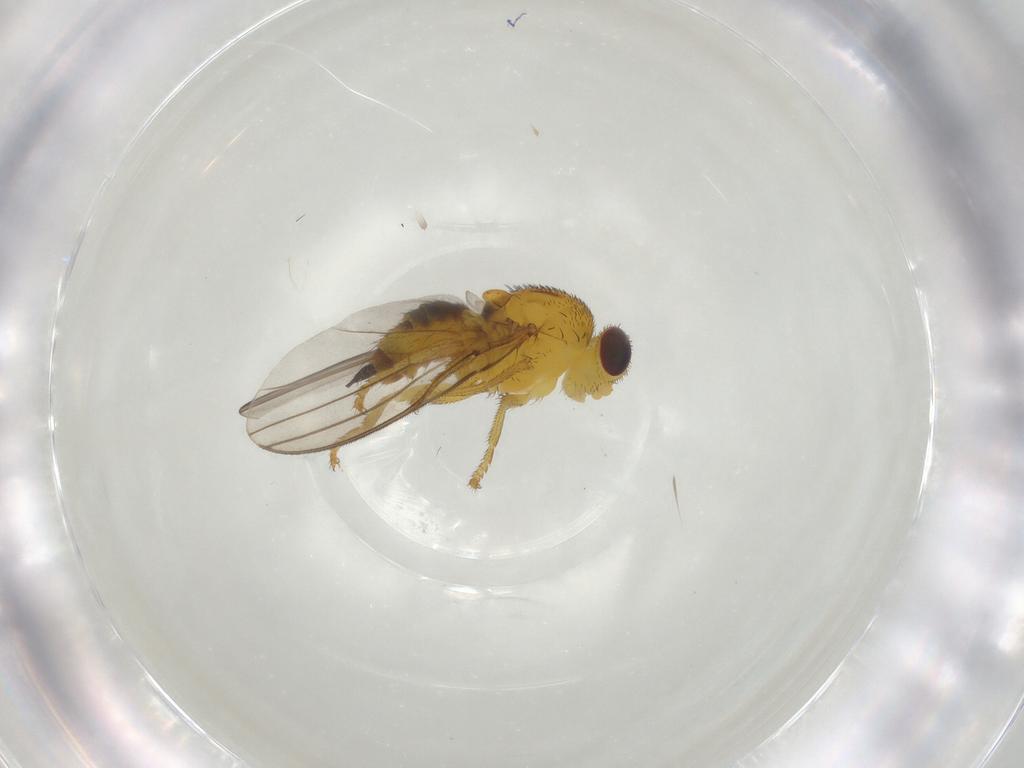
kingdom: Animalia
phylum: Arthropoda
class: Insecta
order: Diptera
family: Fergusoninidae
